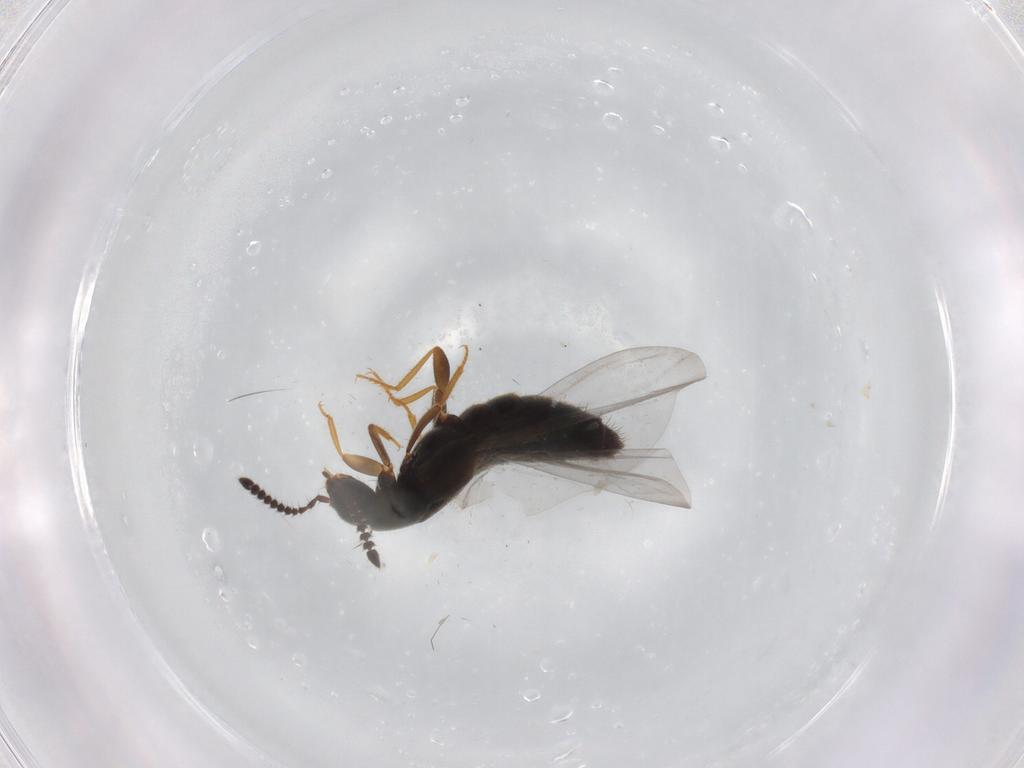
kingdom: Animalia
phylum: Arthropoda
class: Insecta
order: Coleoptera
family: Staphylinidae
